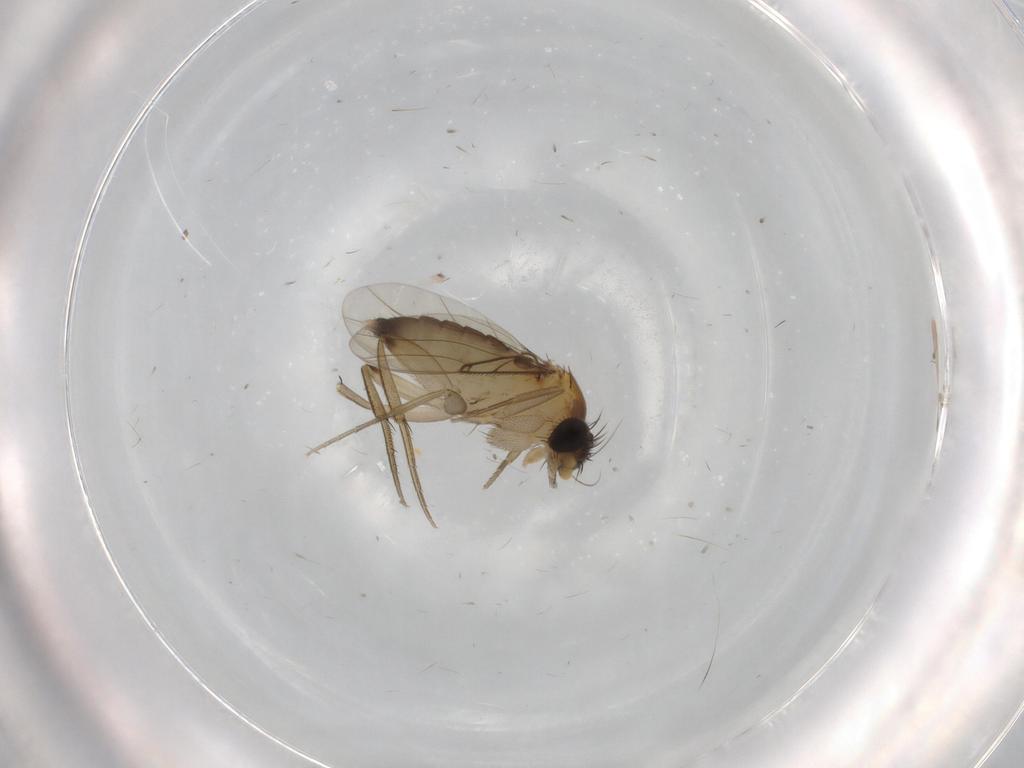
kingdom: Animalia
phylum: Arthropoda
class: Insecta
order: Diptera
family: Phoridae
